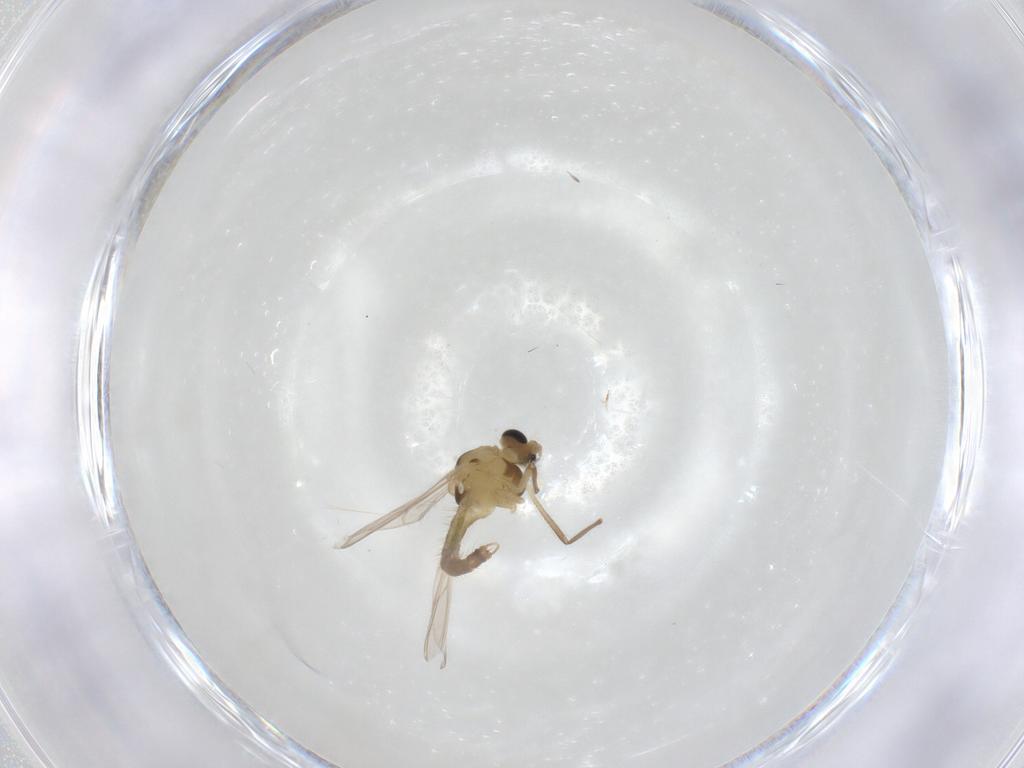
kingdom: Animalia
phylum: Arthropoda
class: Insecta
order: Diptera
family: Chironomidae
